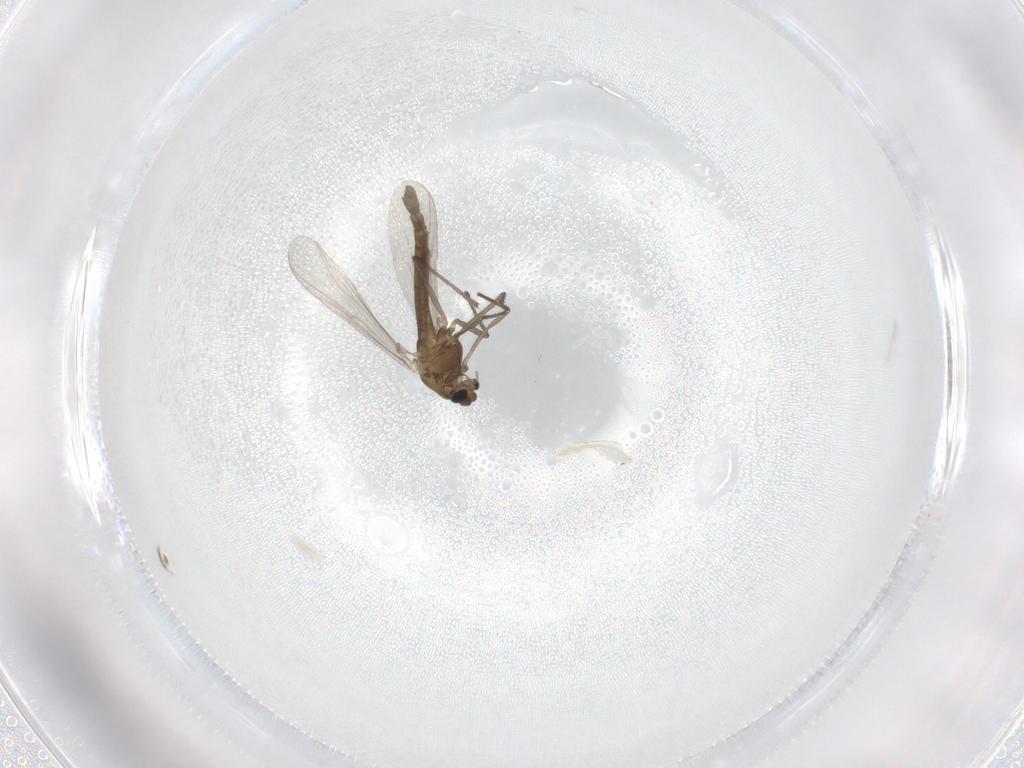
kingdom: Animalia
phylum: Arthropoda
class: Insecta
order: Diptera
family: Chironomidae
